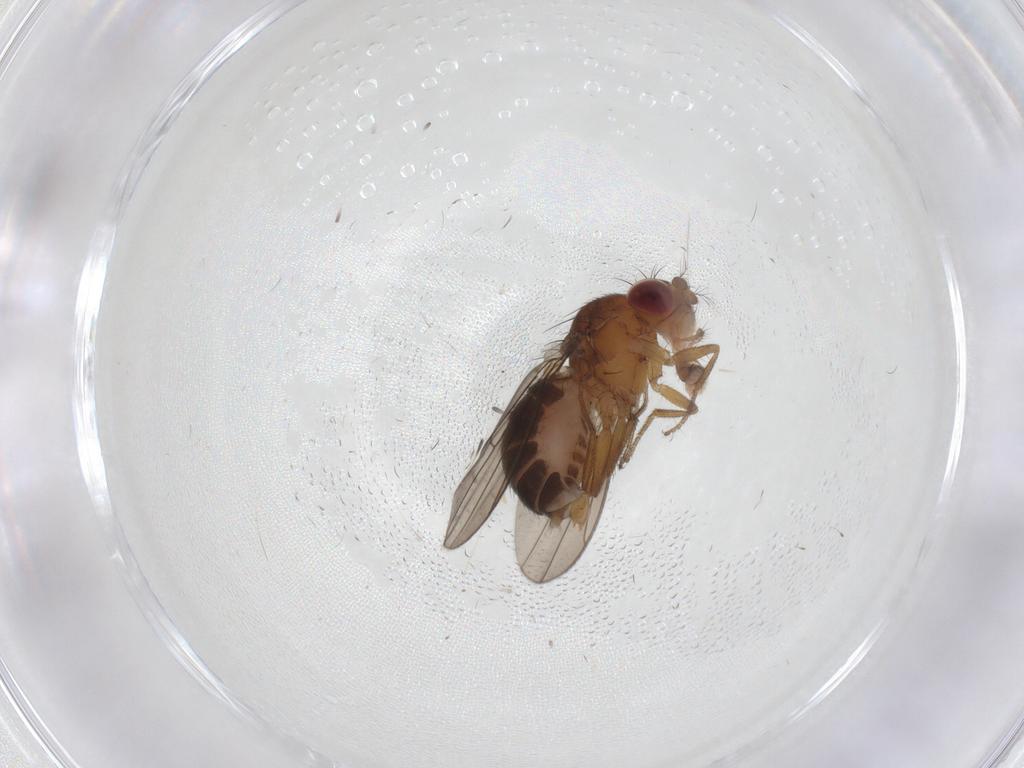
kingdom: Animalia
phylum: Arthropoda
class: Insecta
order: Diptera
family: Drosophilidae
